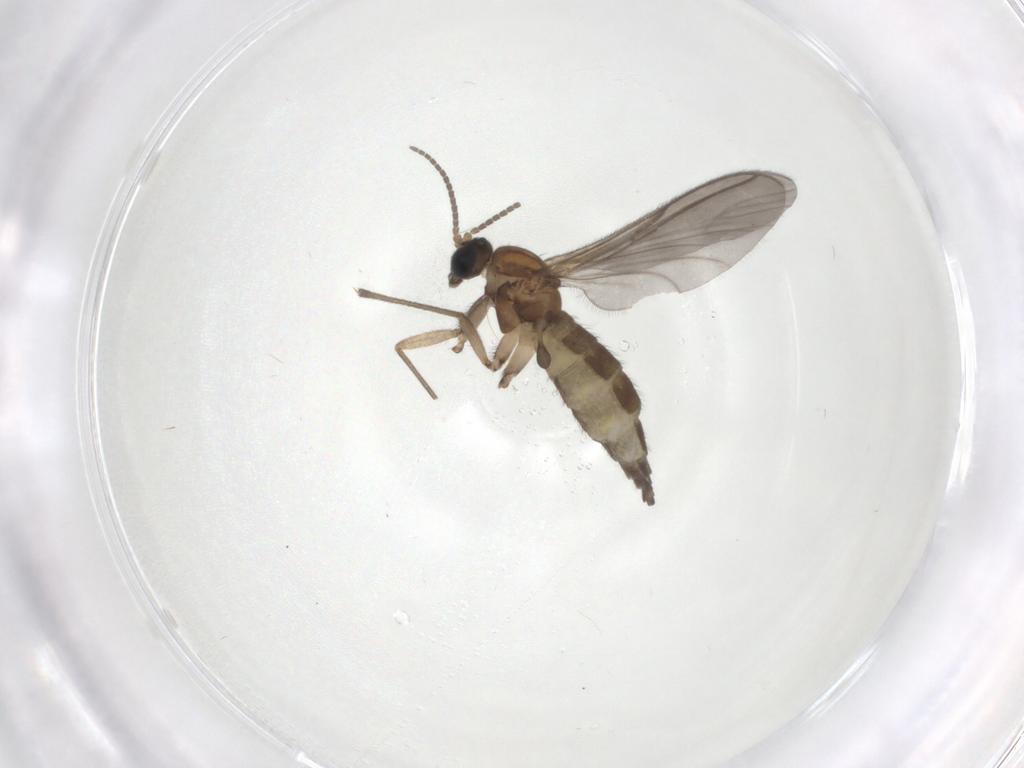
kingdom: Animalia
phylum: Arthropoda
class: Insecta
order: Diptera
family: Sciaridae
